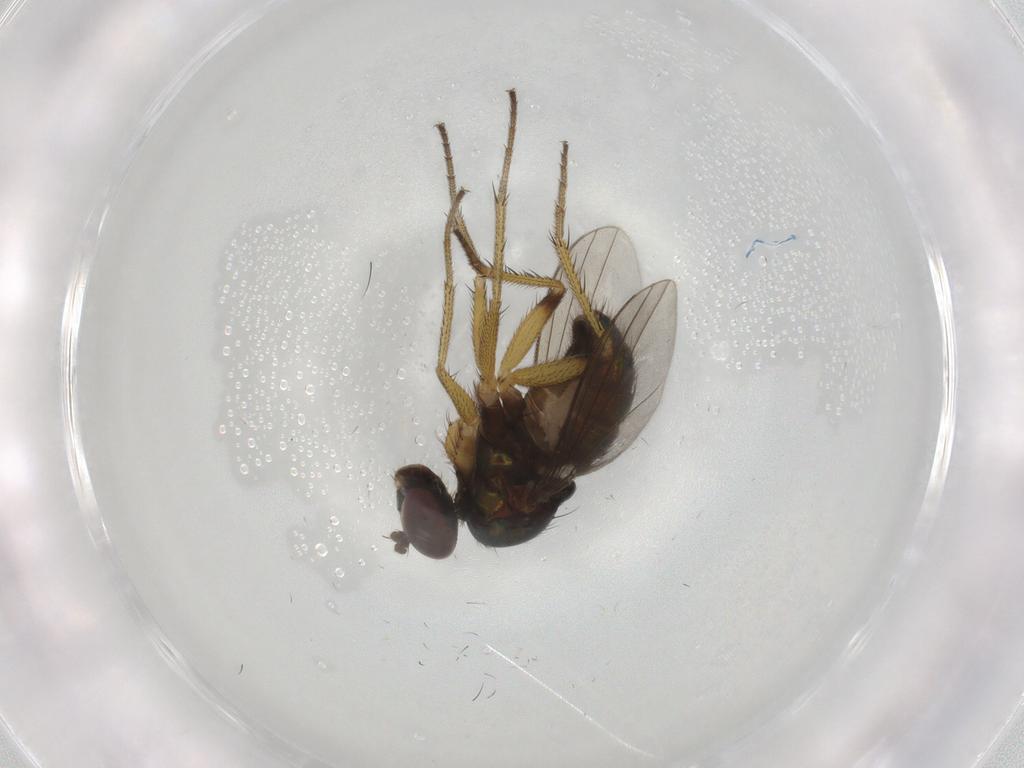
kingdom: Animalia
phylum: Arthropoda
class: Insecta
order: Diptera
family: Dolichopodidae
